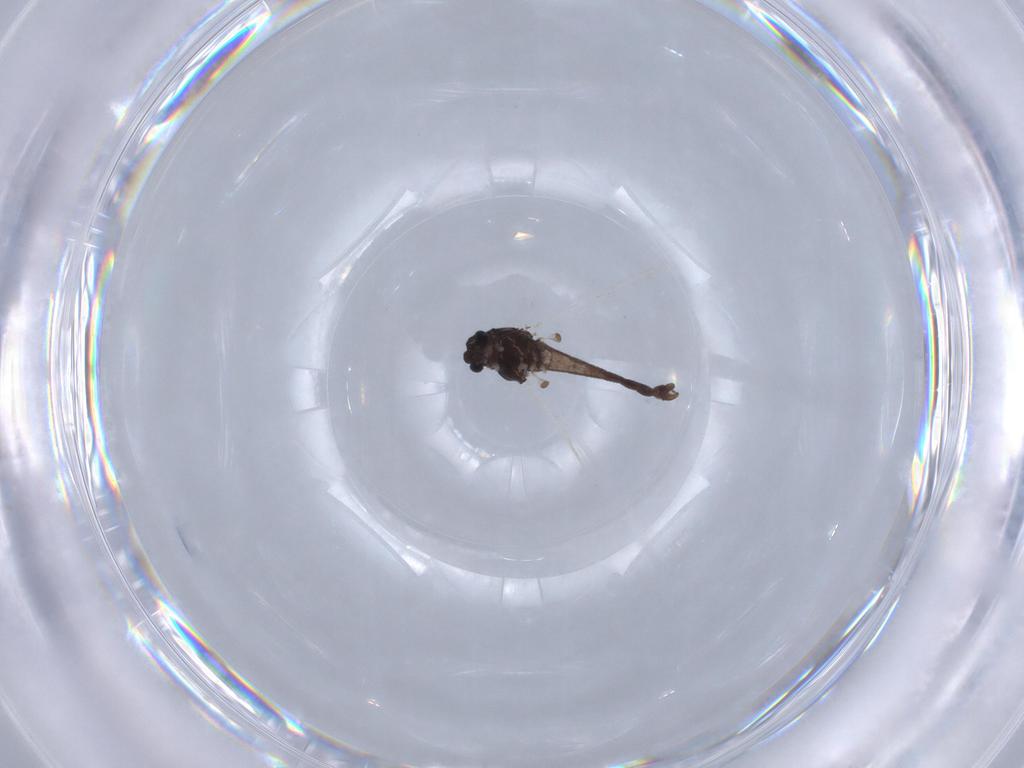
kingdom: Animalia
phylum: Arthropoda
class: Insecta
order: Diptera
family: Chironomidae
